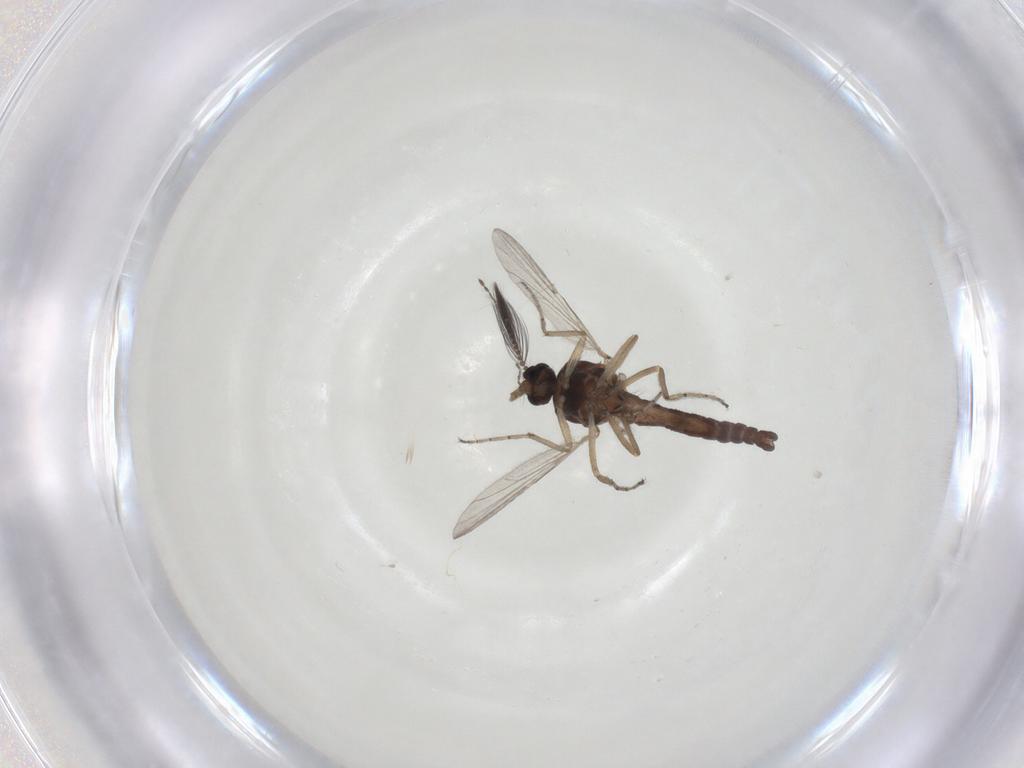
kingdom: Animalia
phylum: Arthropoda
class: Insecta
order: Diptera
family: Ceratopogonidae
